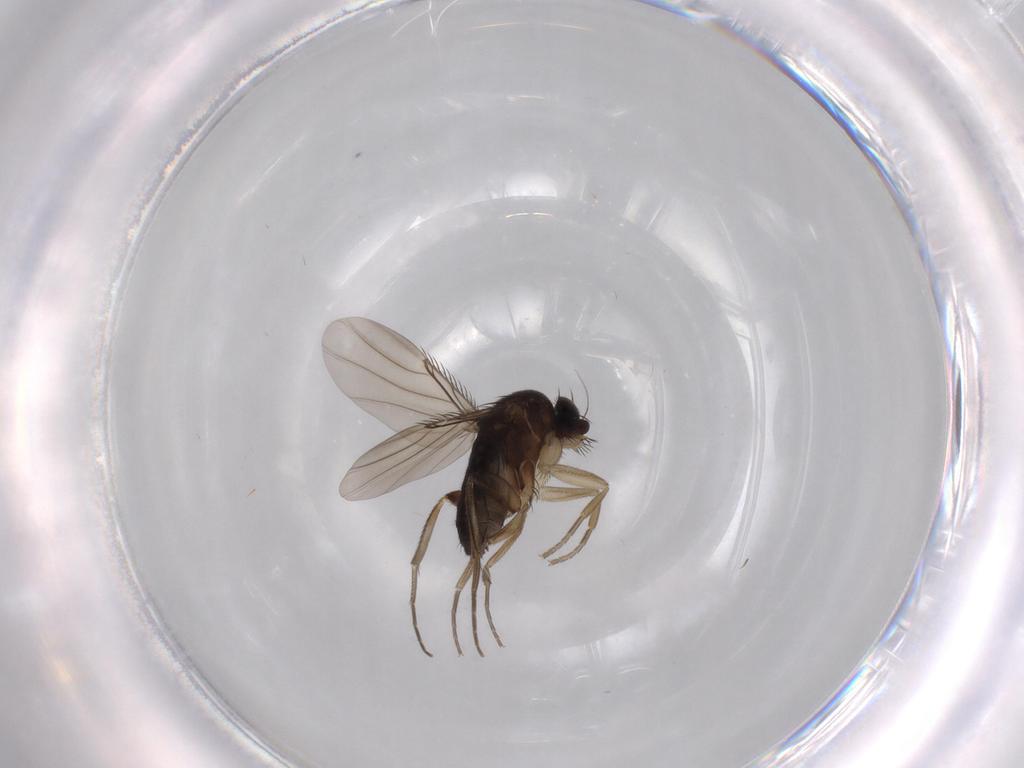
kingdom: Animalia
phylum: Arthropoda
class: Insecta
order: Diptera
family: Phoridae
